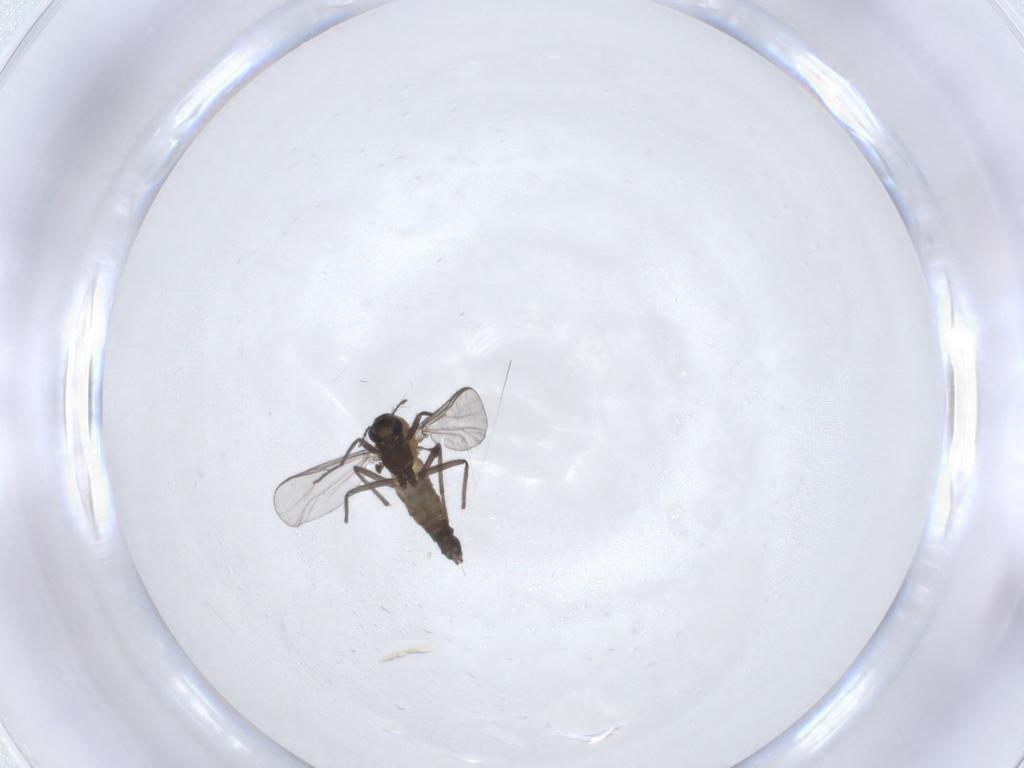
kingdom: Animalia
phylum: Arthropoda
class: Insecta
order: Diptera
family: Chironomidae
